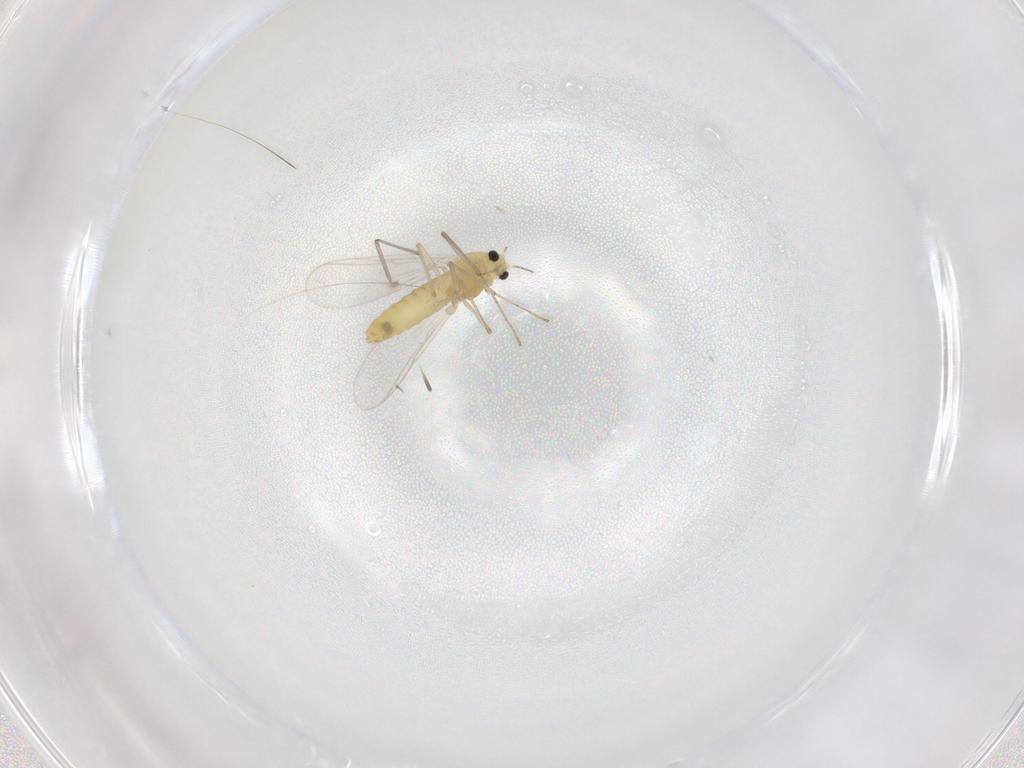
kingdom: Animalia
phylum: Arthropoda
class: Insecta
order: Diptera
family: Chironomidae
